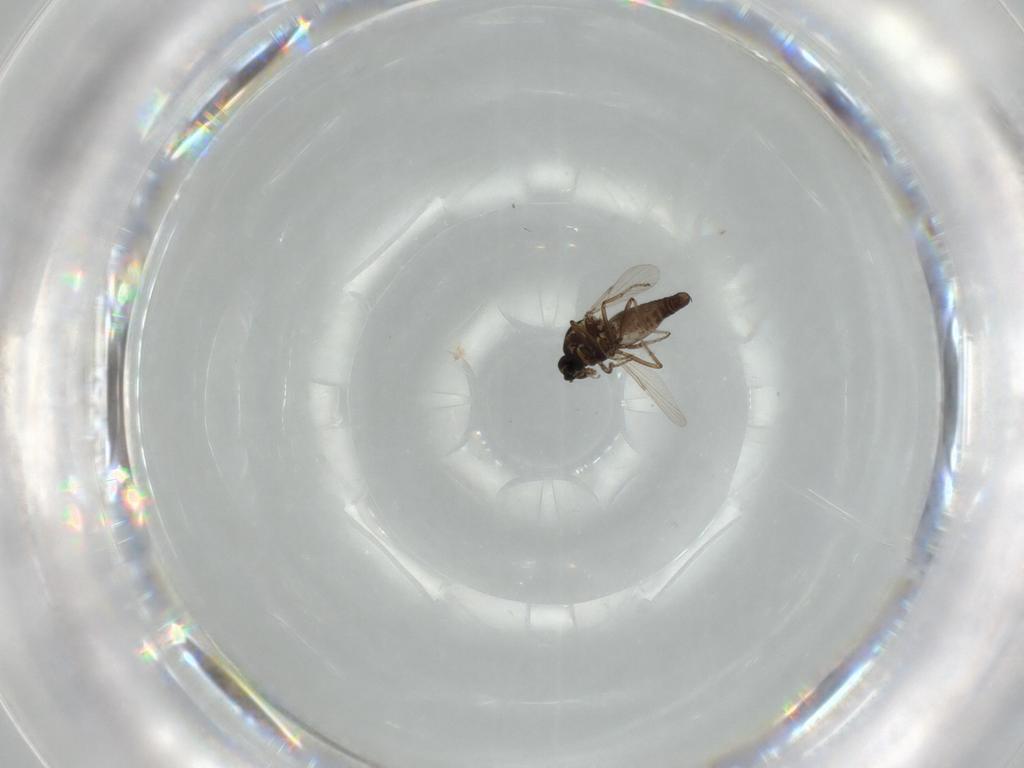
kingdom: Animalia
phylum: Arthropoda
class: Insecta
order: Diptera
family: Ceratopogonidae
